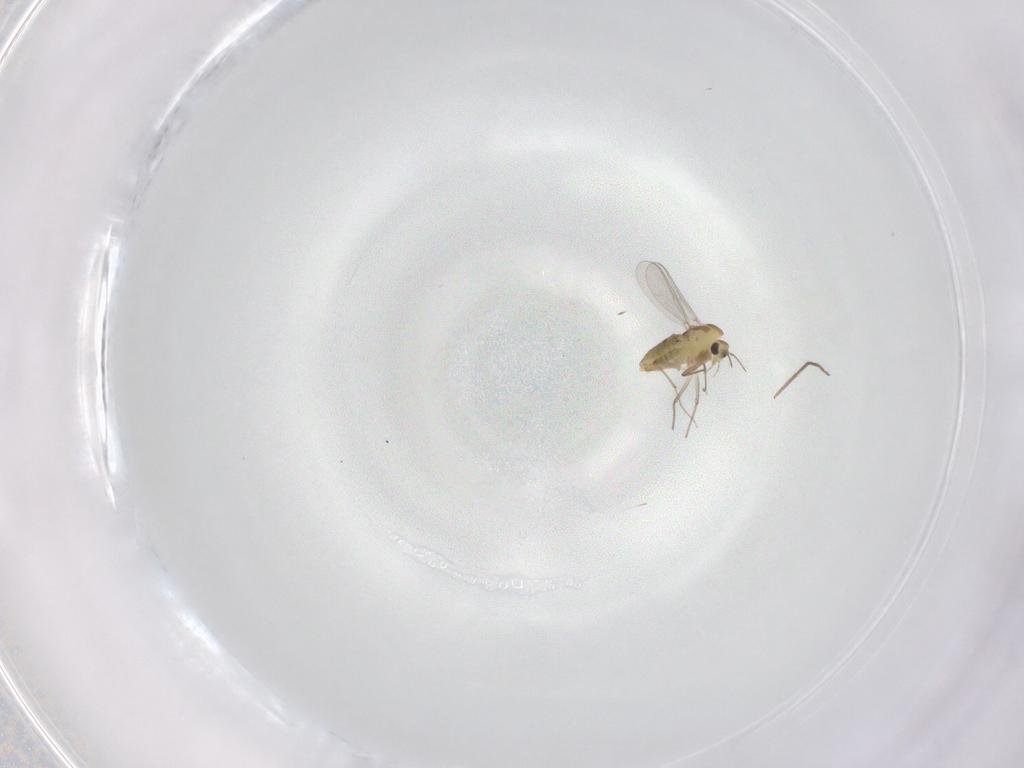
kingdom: Animalia
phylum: Arthropoda
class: Insecta
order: Diptera
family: Chironomidae
